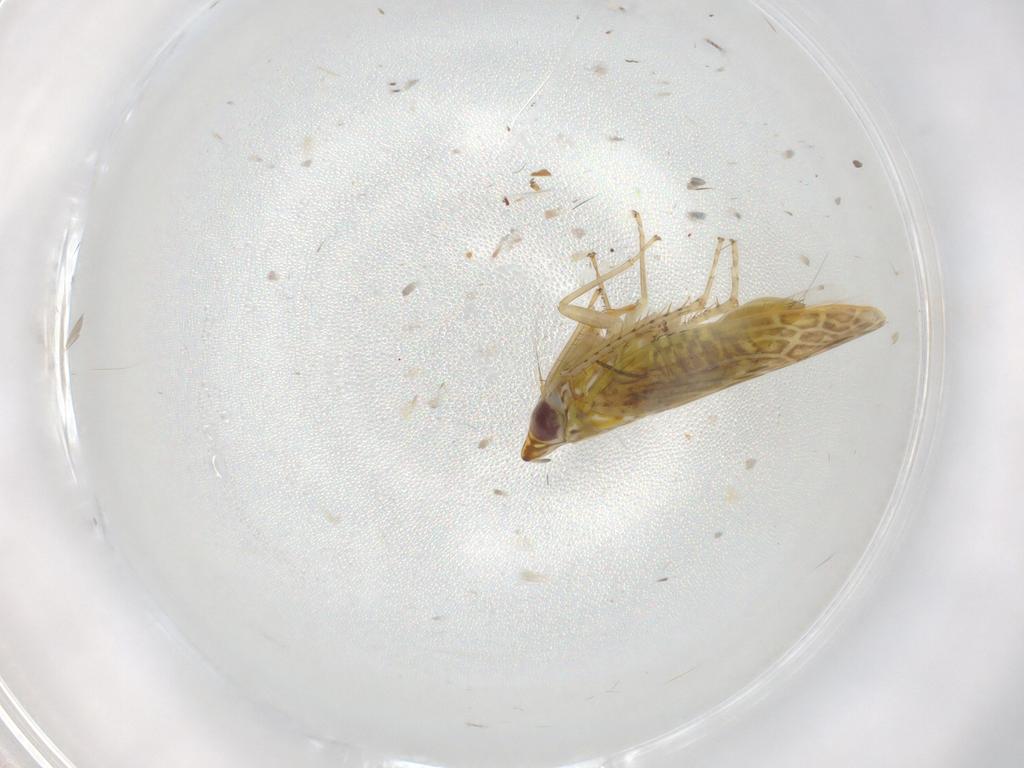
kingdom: Animalia
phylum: Arthropoda
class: Insecta
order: Hemiptera
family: Cicadellidae
